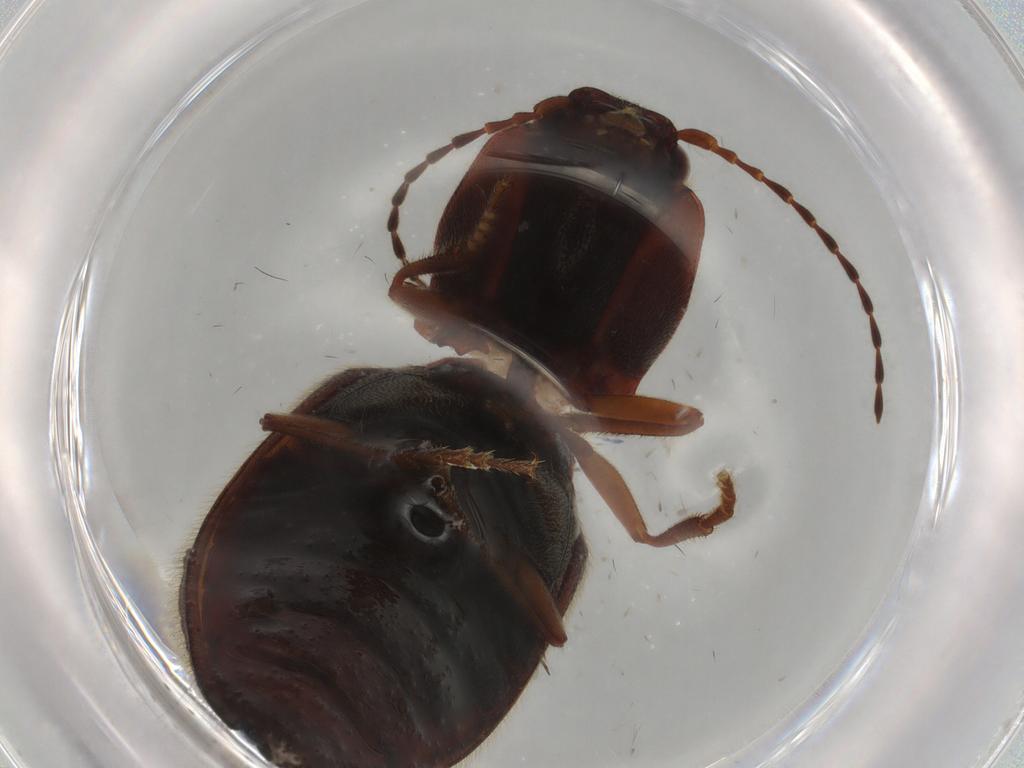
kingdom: Animalia
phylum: Arthropoda
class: Insecta
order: Coleoptera
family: Elateridae
